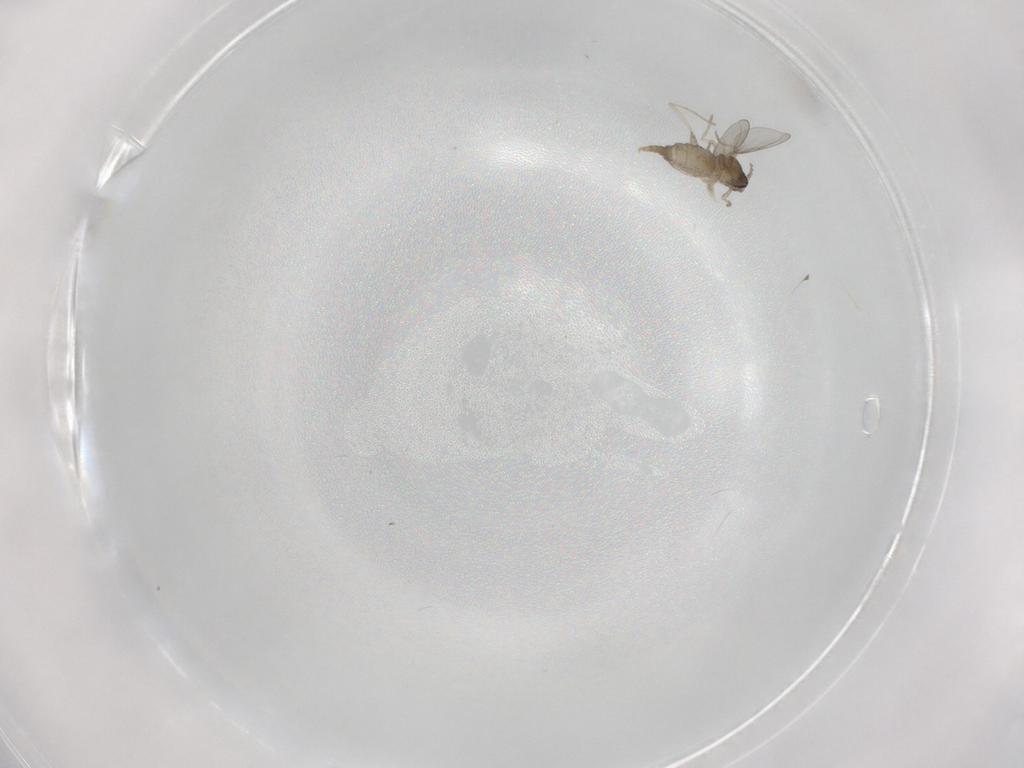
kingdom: Animalia
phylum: Arthropoda
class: Insecta
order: Diptera
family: Cecidomyiidae
